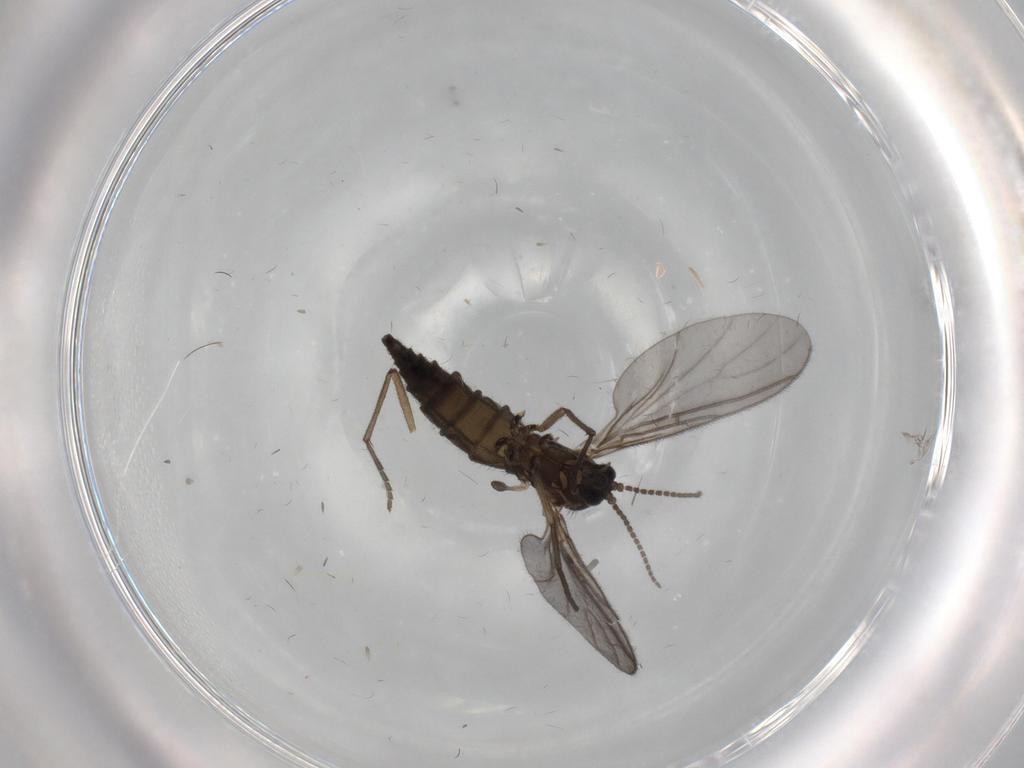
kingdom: Animalia
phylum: Arthropoda
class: Insecta
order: Diptera
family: Sciaridae
